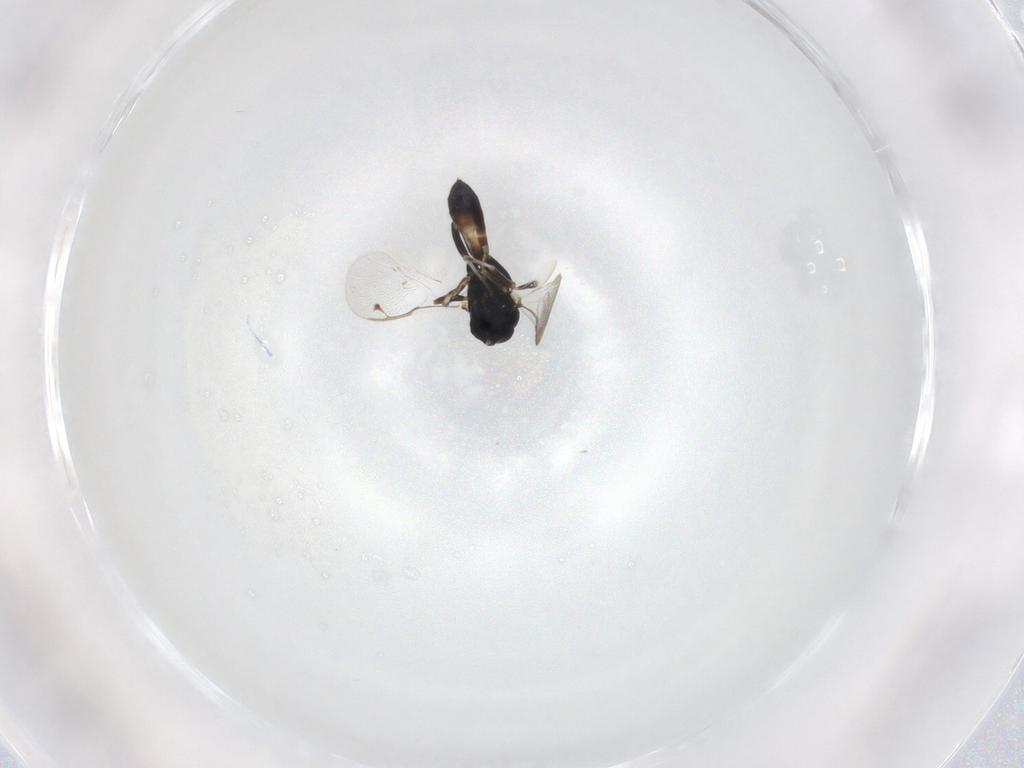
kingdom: Animalia
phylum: Arthropoda
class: Insecta
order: Hymenoptera
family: Pteromalidae
